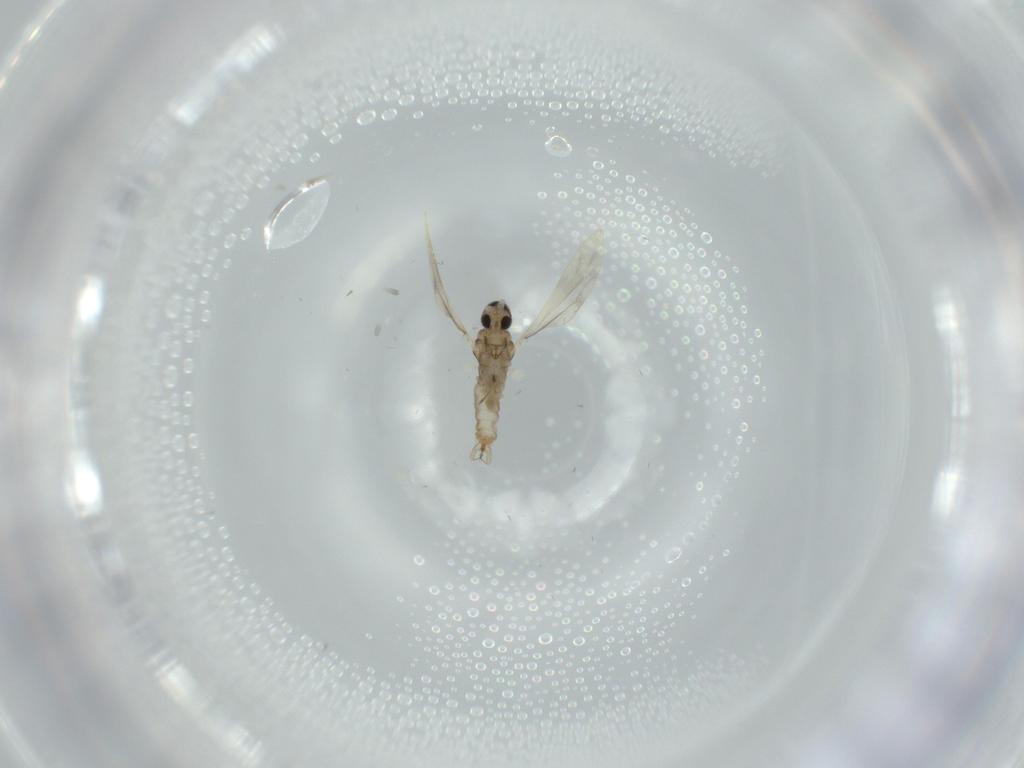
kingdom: Animalia
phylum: Arthropoda
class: Insecta
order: Diptera
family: Cecidomyiidae
